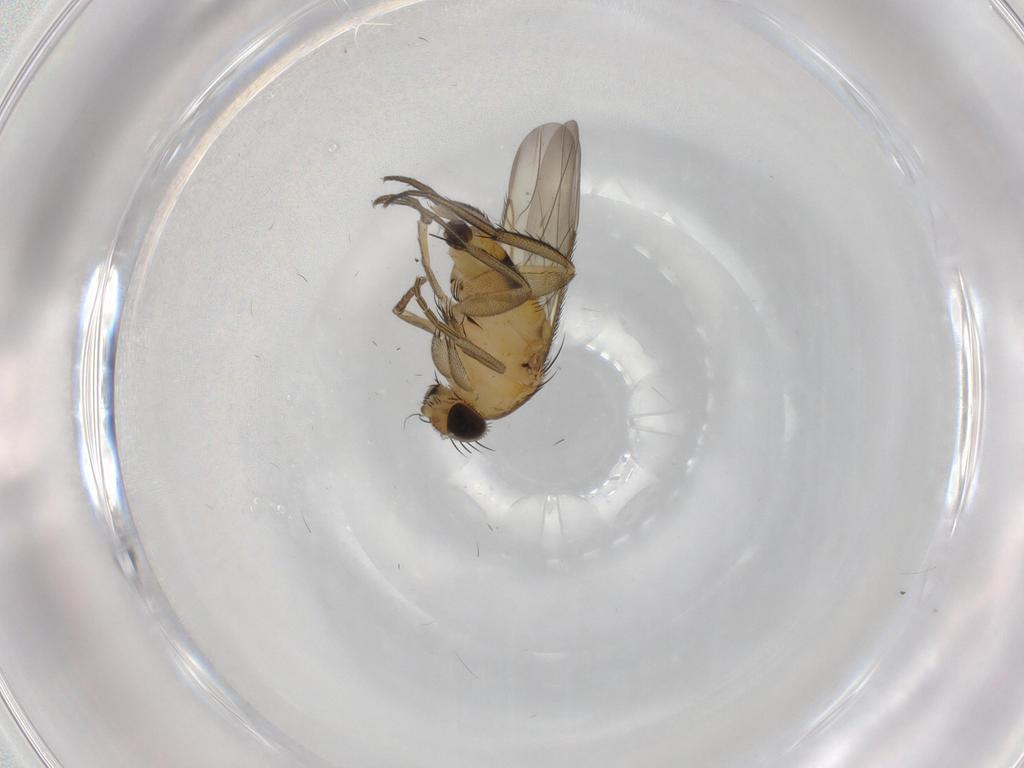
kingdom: Animalia
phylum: Arthropoda
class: Insecta
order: Diptera
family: Phoridae
